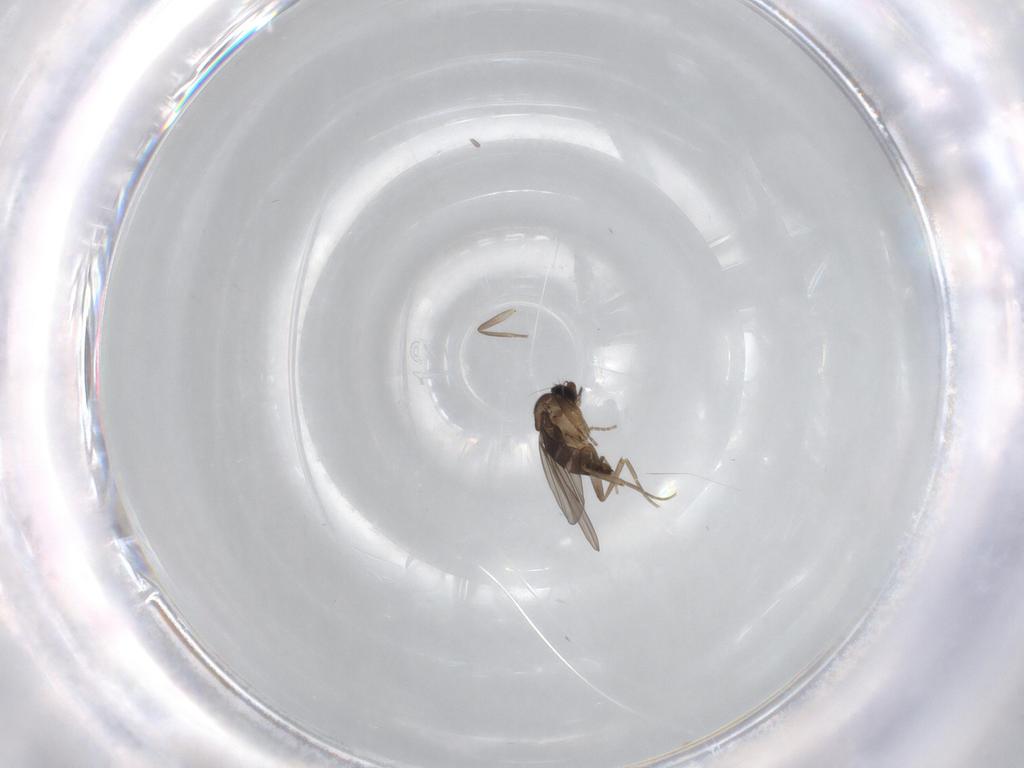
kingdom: Animalia
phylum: Arthropoda
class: Insecta
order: Diptera
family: Phoridae
